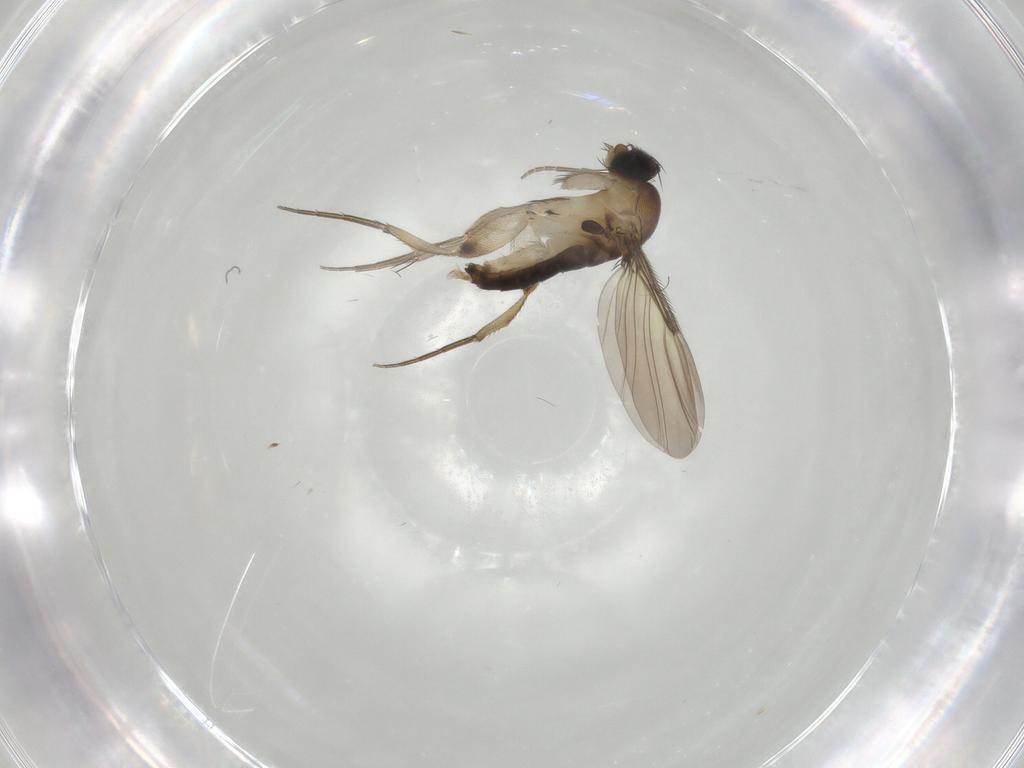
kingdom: Animalia
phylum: Arthropoda
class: Insecta
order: Diptera
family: Phoridae
